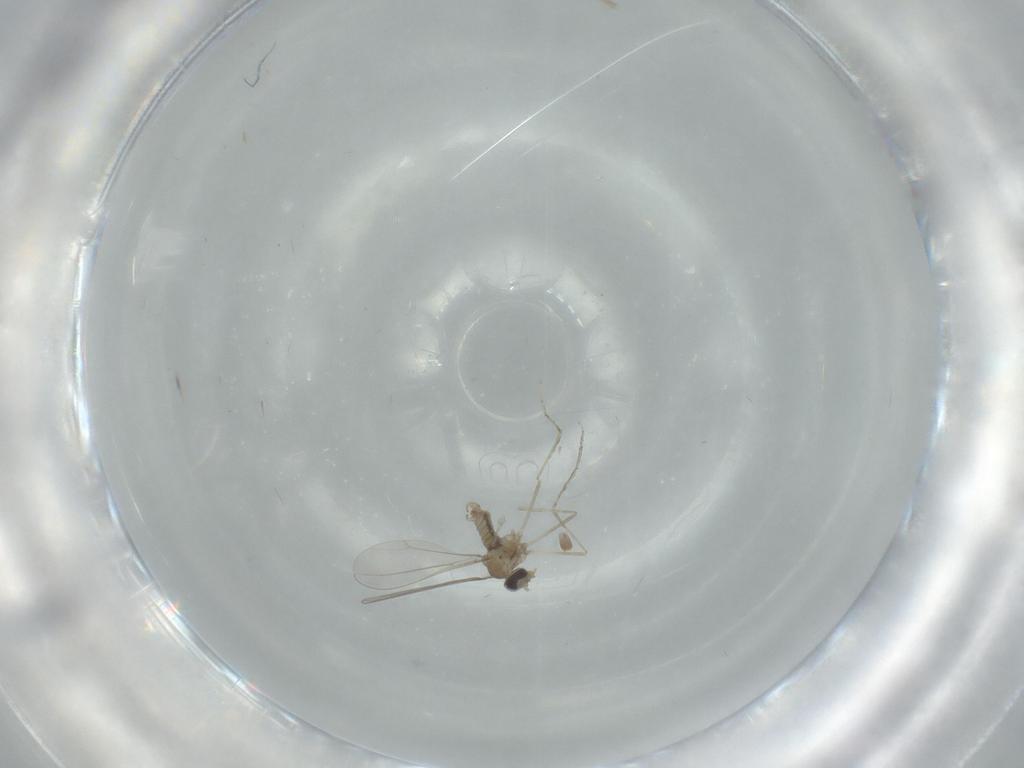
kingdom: Animalia
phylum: Arthropoda
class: Insecta
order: Diptera
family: Cecidomyiidae
